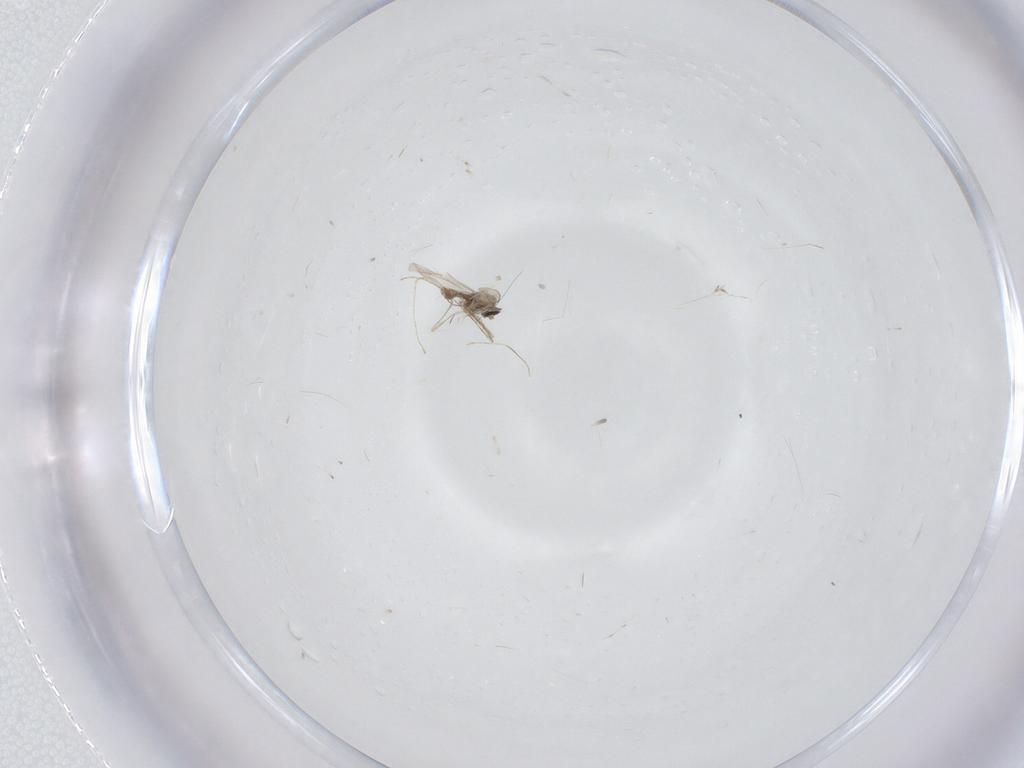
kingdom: Animalia
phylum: Arthropoda
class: Insecta
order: Diptera
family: Cecidomyiidae
